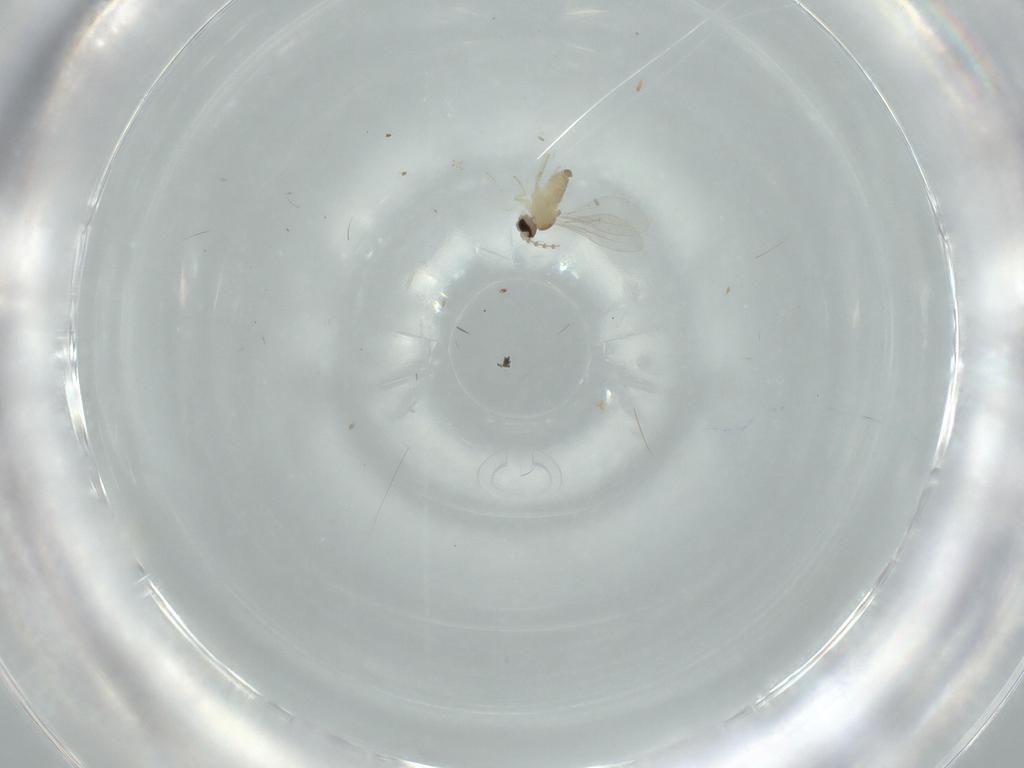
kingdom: Animalia
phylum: Arthropoda
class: Insecta
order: Diptera
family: Cecidomyiidae
